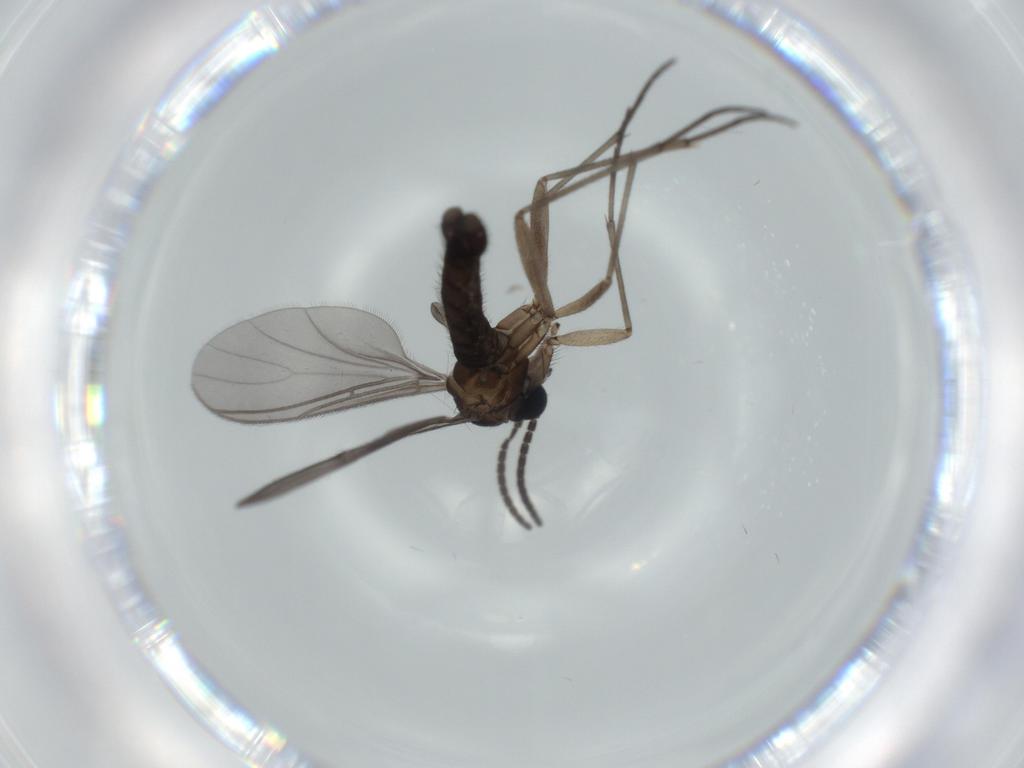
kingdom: Animalia
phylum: Arthropoda
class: Insecta
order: Diptera
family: Sciaridae
